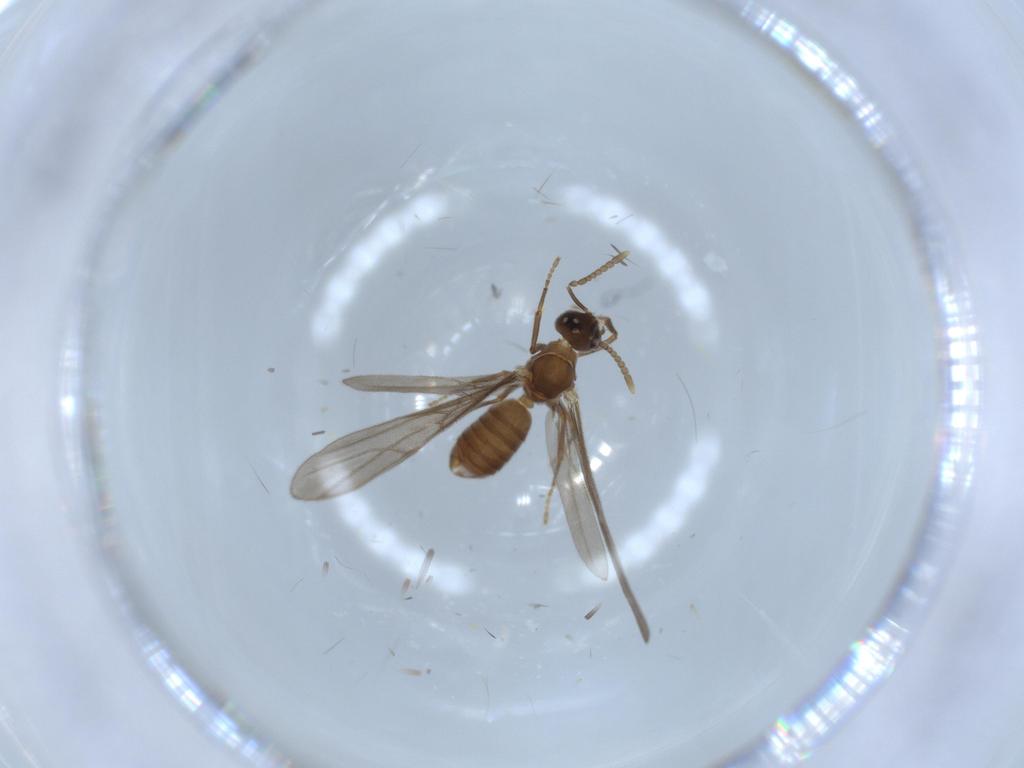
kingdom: Animalia
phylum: Arthropoda
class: Insecta
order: Hymenoptera
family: Formicidae
